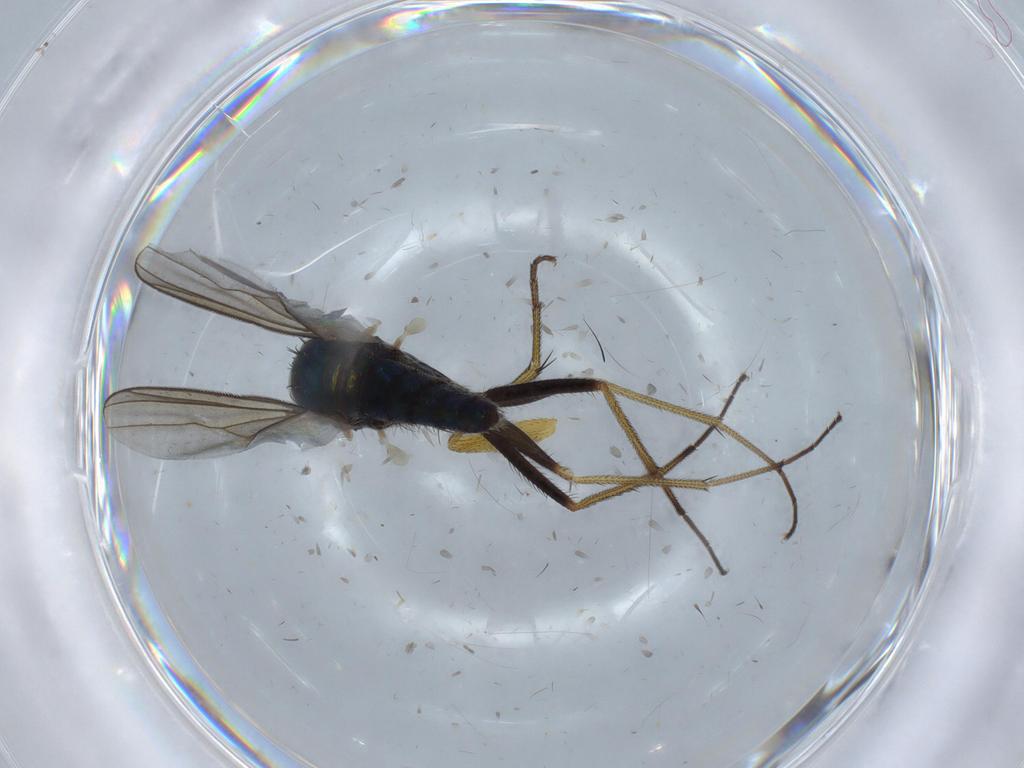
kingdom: Animalia
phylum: Arthropoda
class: Insecta
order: Diptera
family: Dolichopodidae
